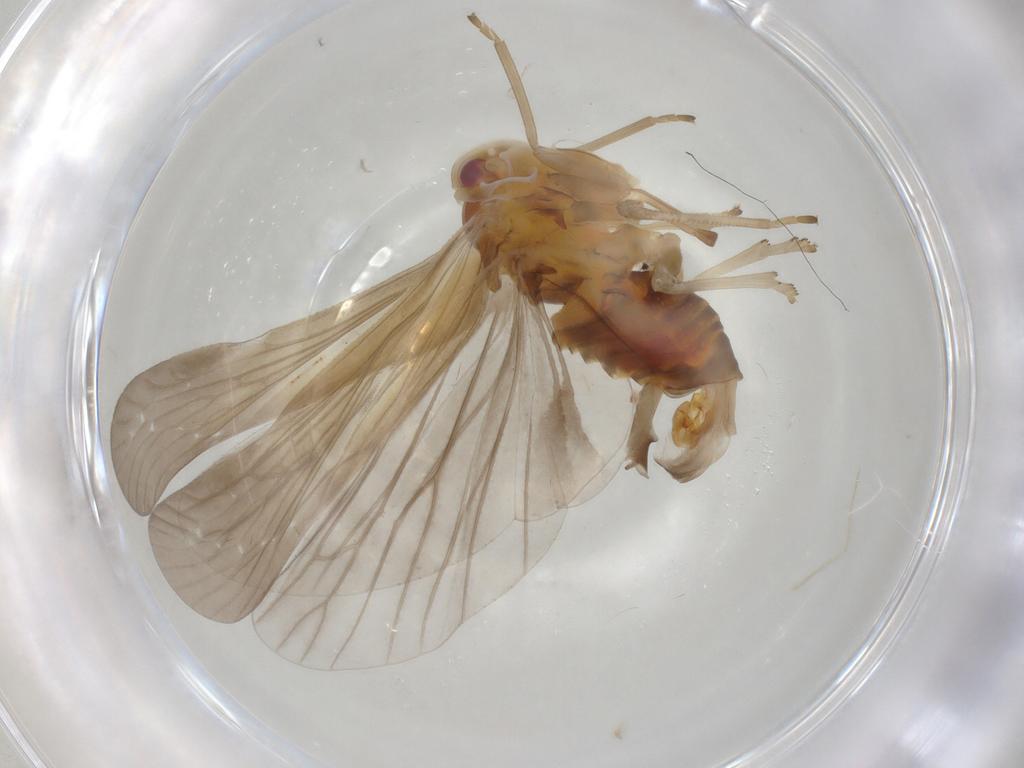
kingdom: Animalia
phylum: Arthropoda
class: Insecta
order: Hemiptera
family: Derbidae
